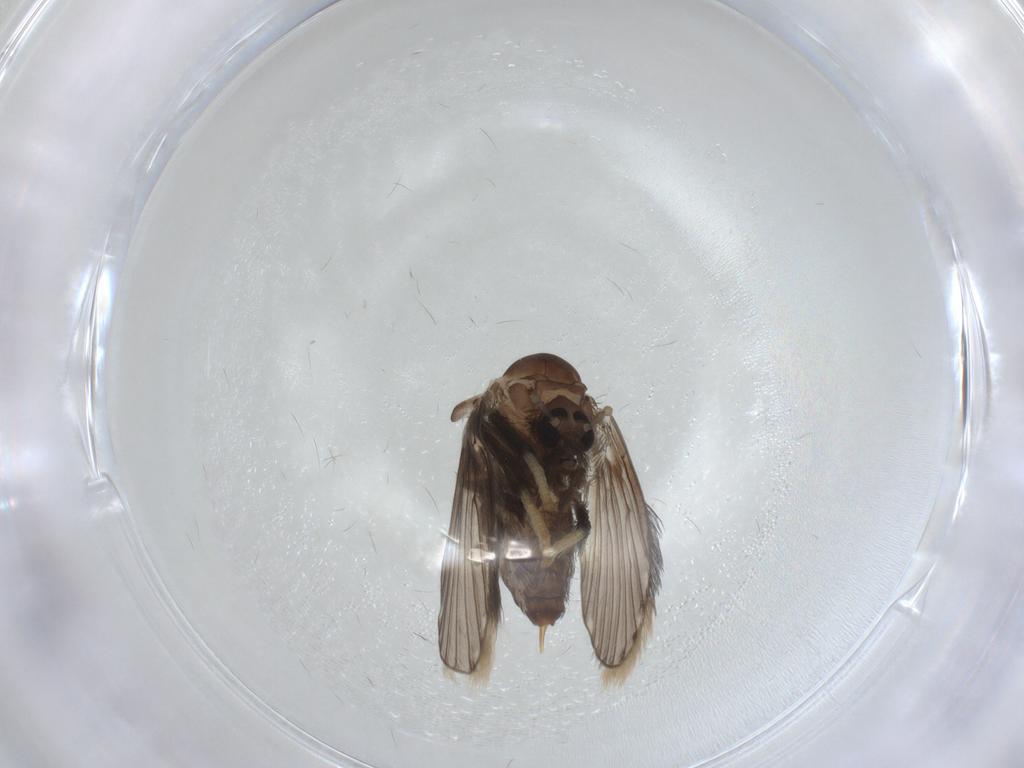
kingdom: Animalia
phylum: Arthropoda
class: Insecta
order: Diptera
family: Psychodidae
